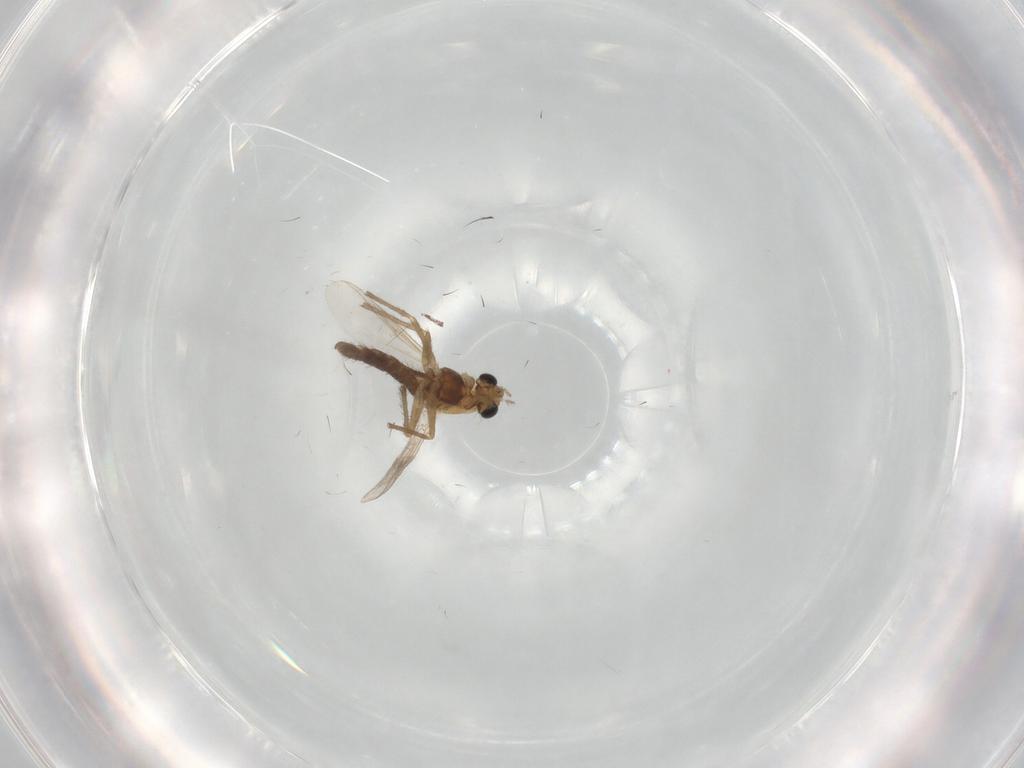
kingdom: Animalia
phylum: Arthropoda
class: Insecta
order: Diptera
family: Chironomidae
